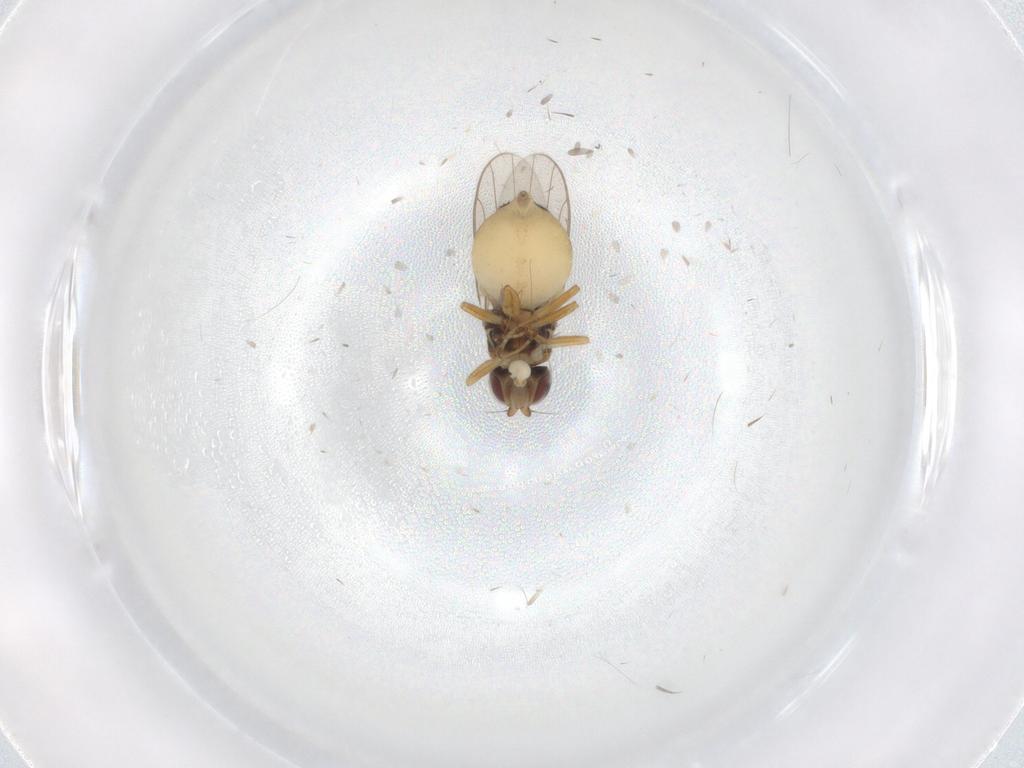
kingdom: Animalia
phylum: Arthropoda
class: Insecta
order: Diptera
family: Chloropidae
